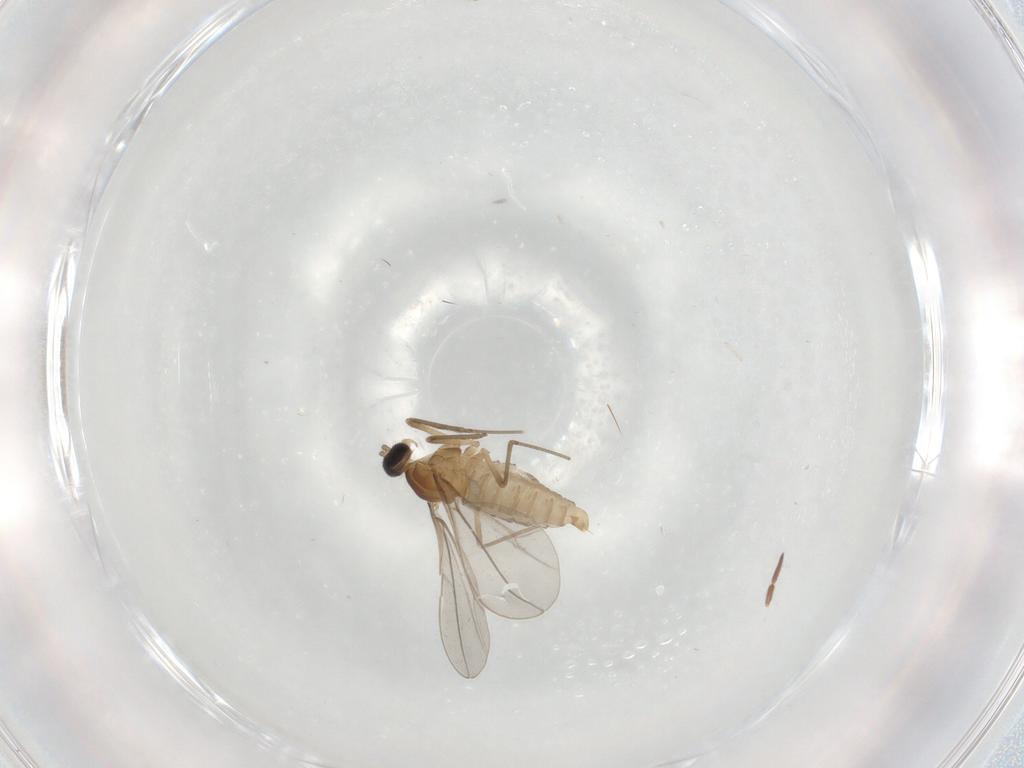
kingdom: Animalia
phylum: Arthropoda
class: Insecta
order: Diptera
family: Cecidomyiidae
